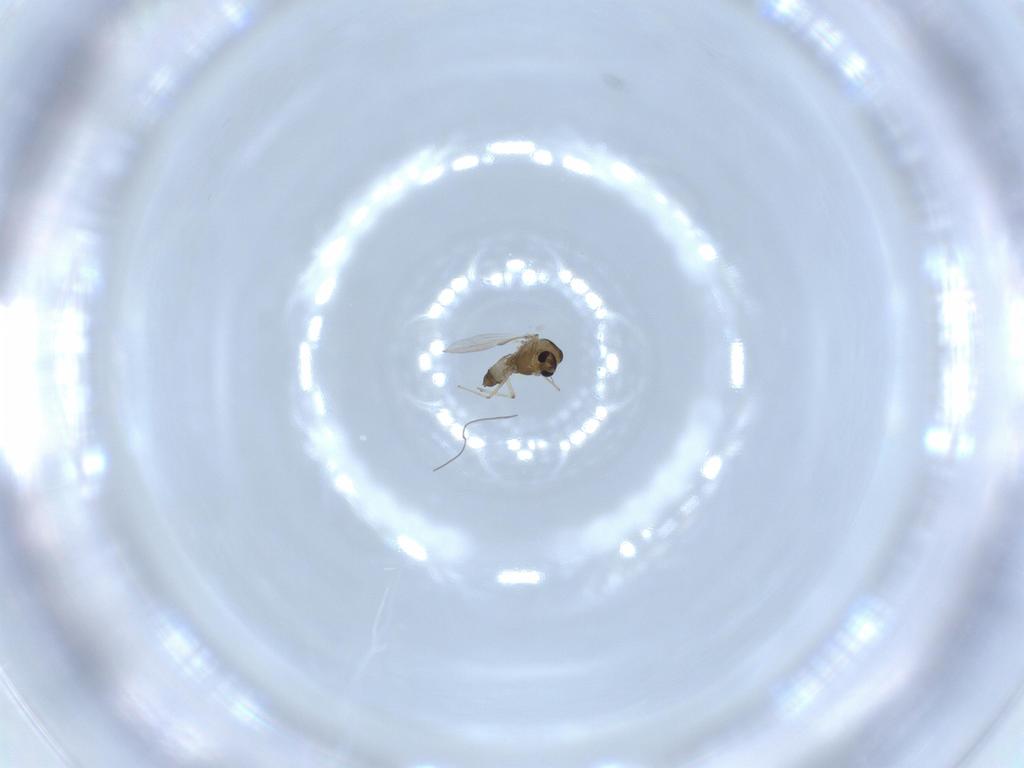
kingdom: Animalia
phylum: Arthropoda
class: Insecta
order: Diptera
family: Chironomidae
